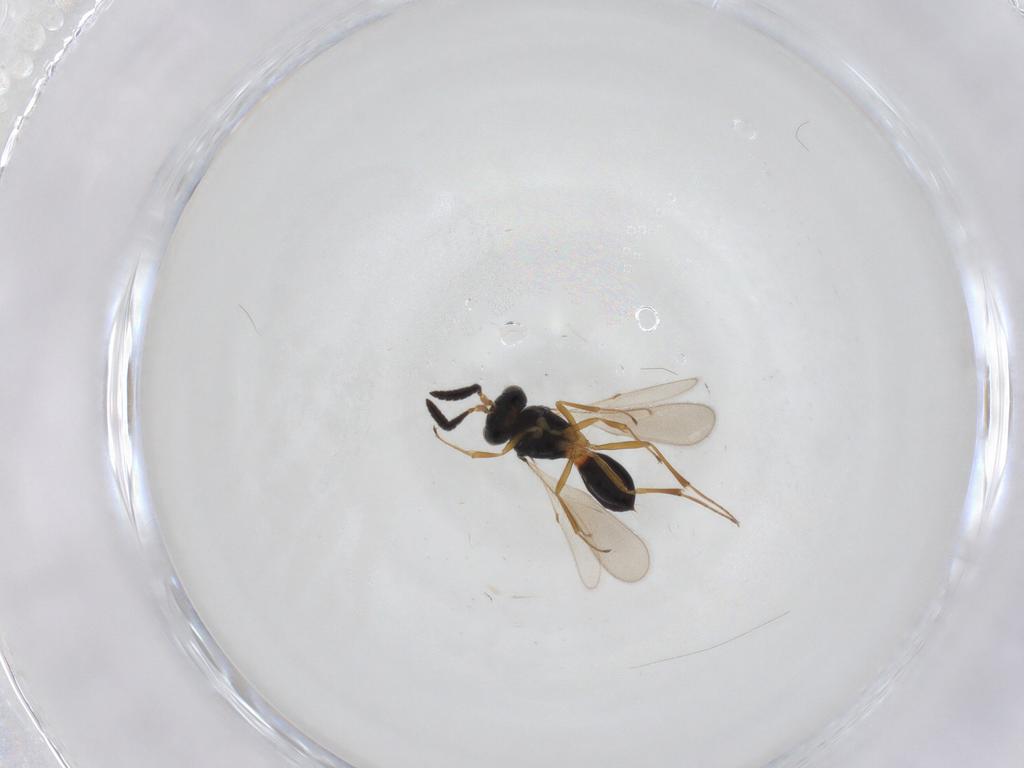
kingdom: Animalia
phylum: Arthropoda
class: Insecta
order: Hymenoptera
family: Scelionidae
